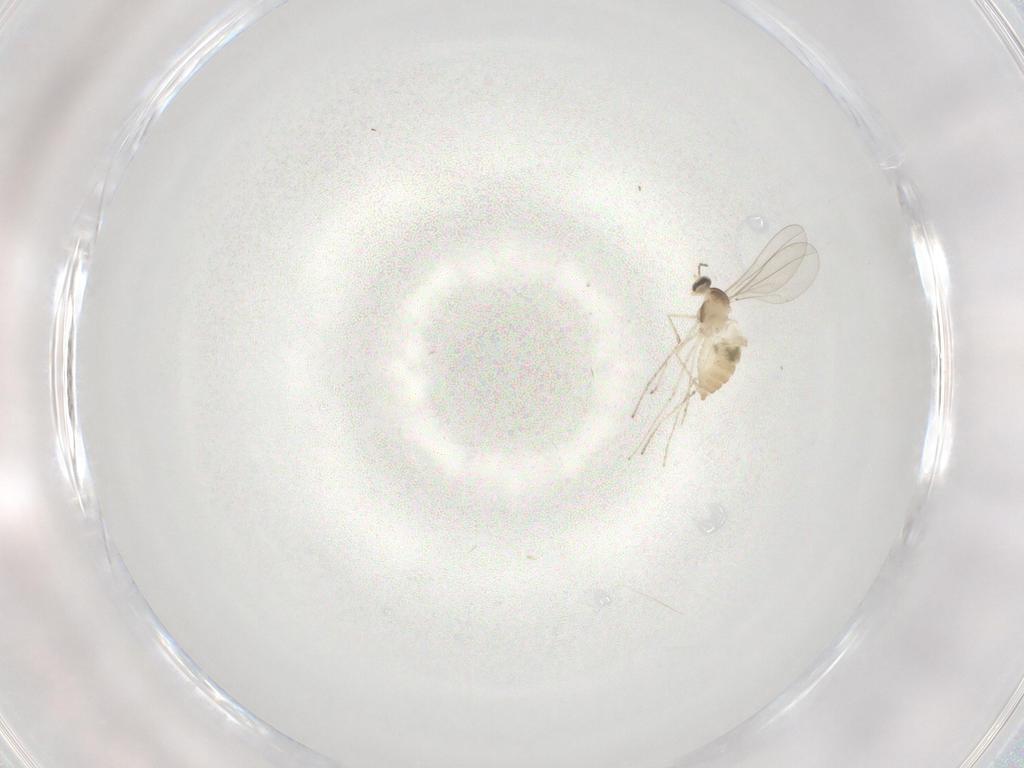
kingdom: Animalia
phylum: Arthropoda
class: Insecta
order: Diptera
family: Cecidomyiidae
